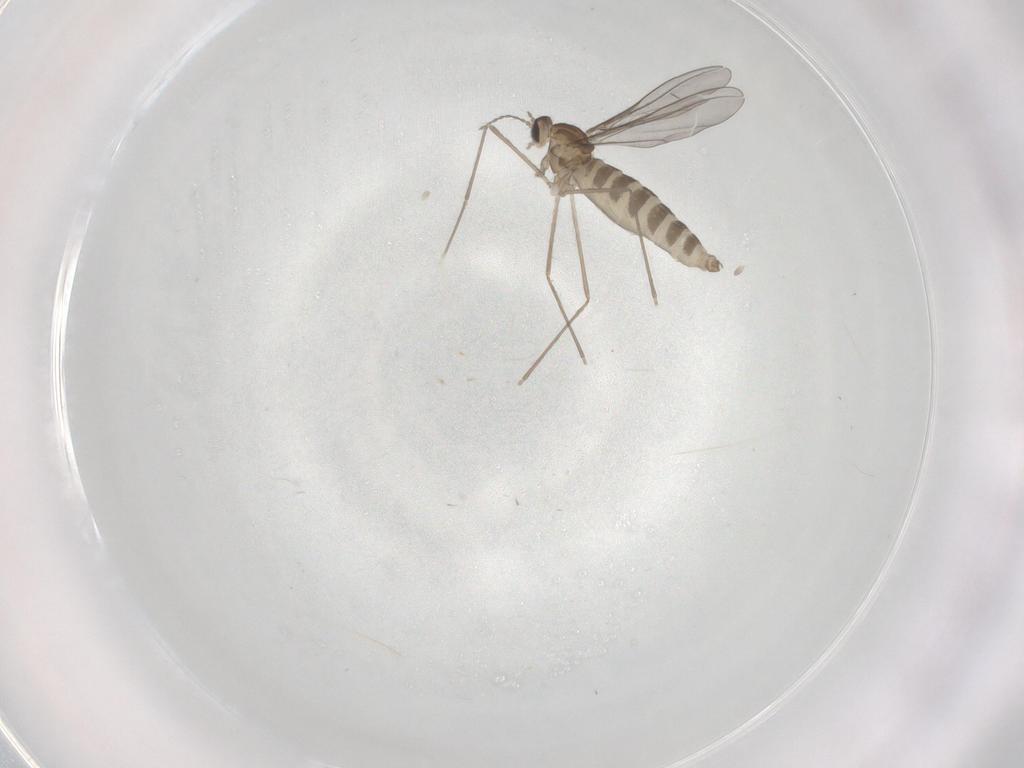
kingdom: Animalia
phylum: Arthropoda
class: Insecta
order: Diptera
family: Cecidomyiidae
